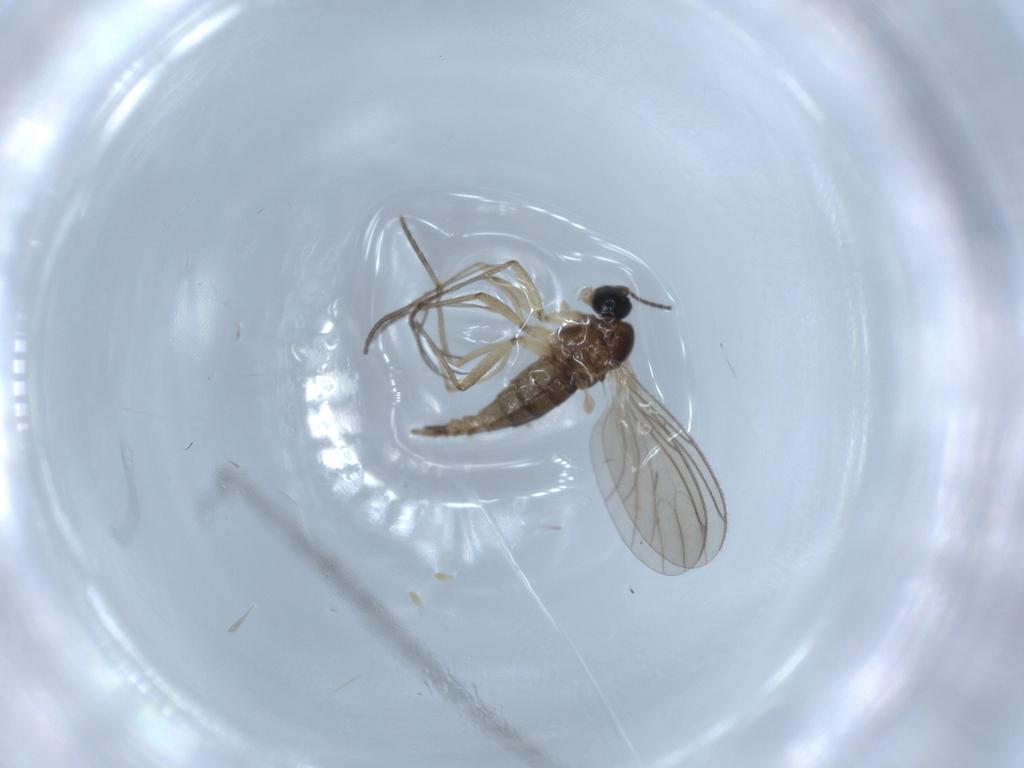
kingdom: Animalia
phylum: Arthropoda
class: Insecta
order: Diptera
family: Sciaridae
